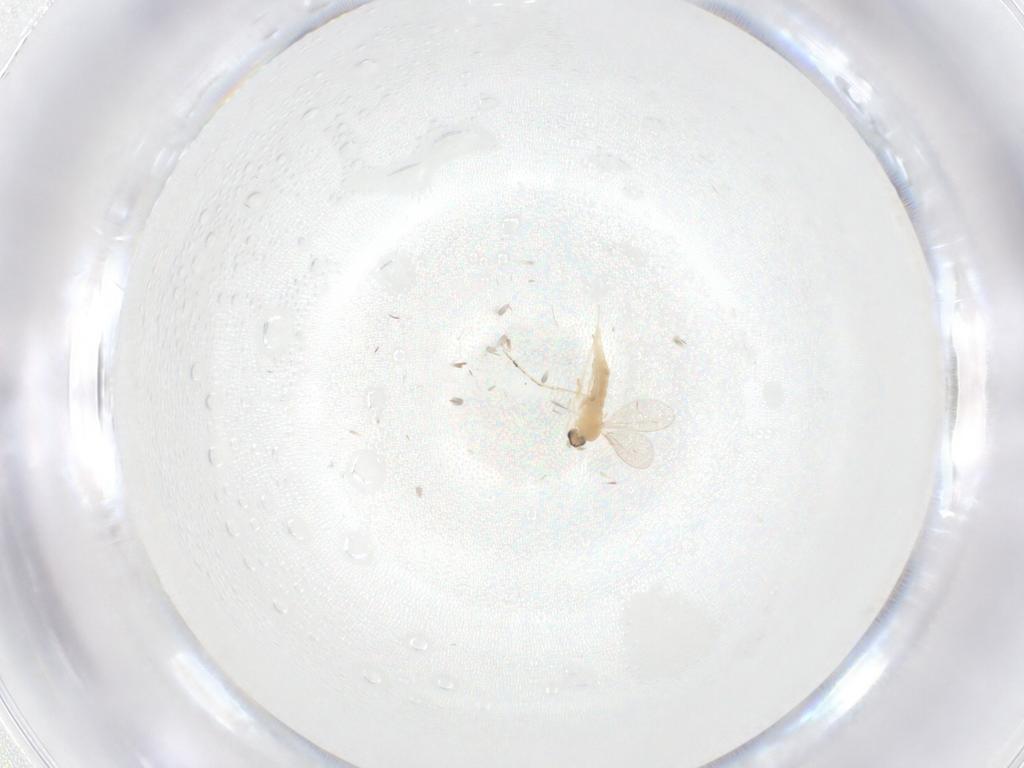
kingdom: Animalia
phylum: Arthropoda
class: Insecta
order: Diptera
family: Cecidomyiidae
